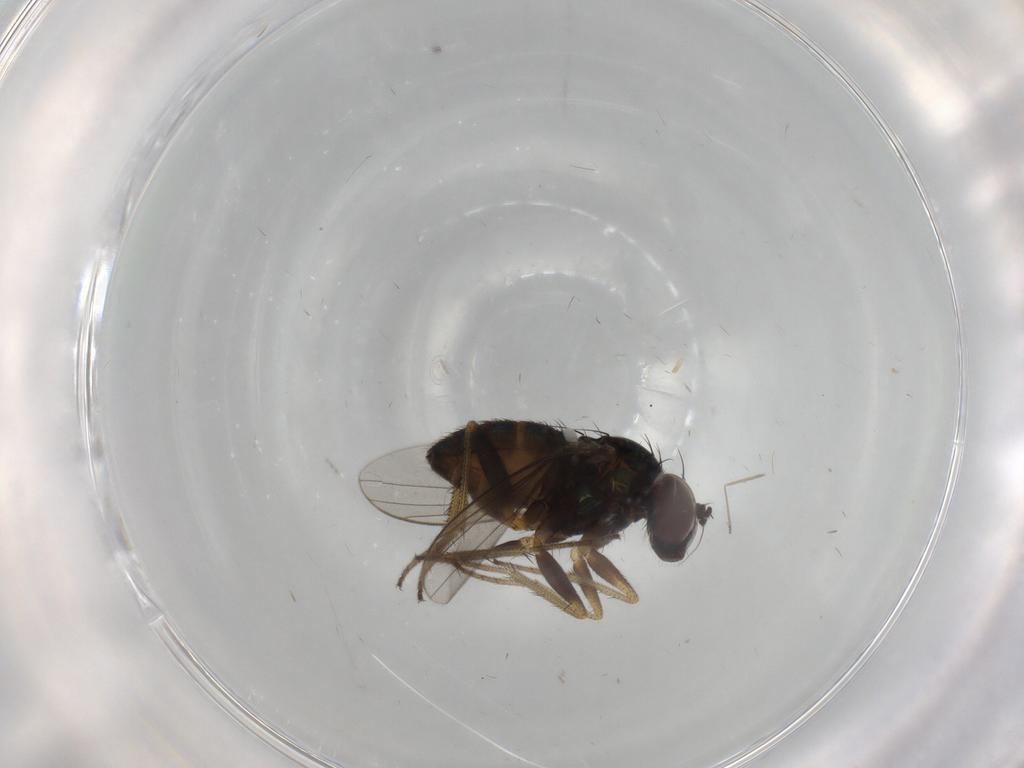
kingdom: Animalia
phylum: Arthropoda
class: Insecta
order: Diptera
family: Dolichopodidae
